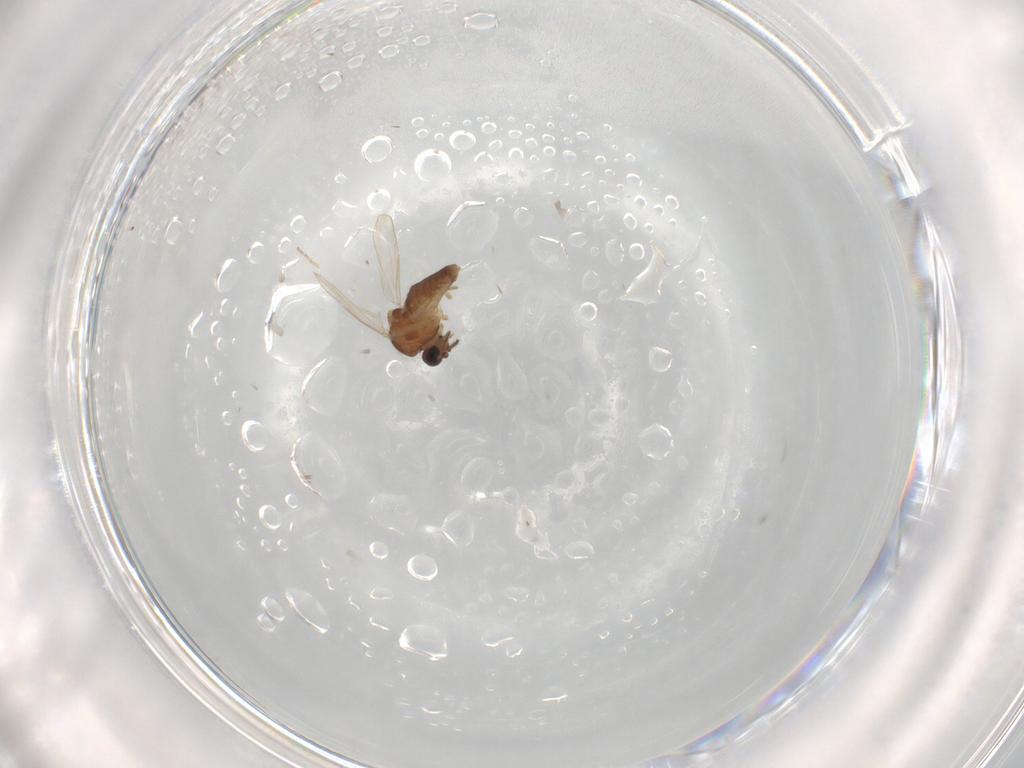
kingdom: Animalia
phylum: Arthropoda
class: Insecta
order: Diptera
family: Ceratopogonidae
